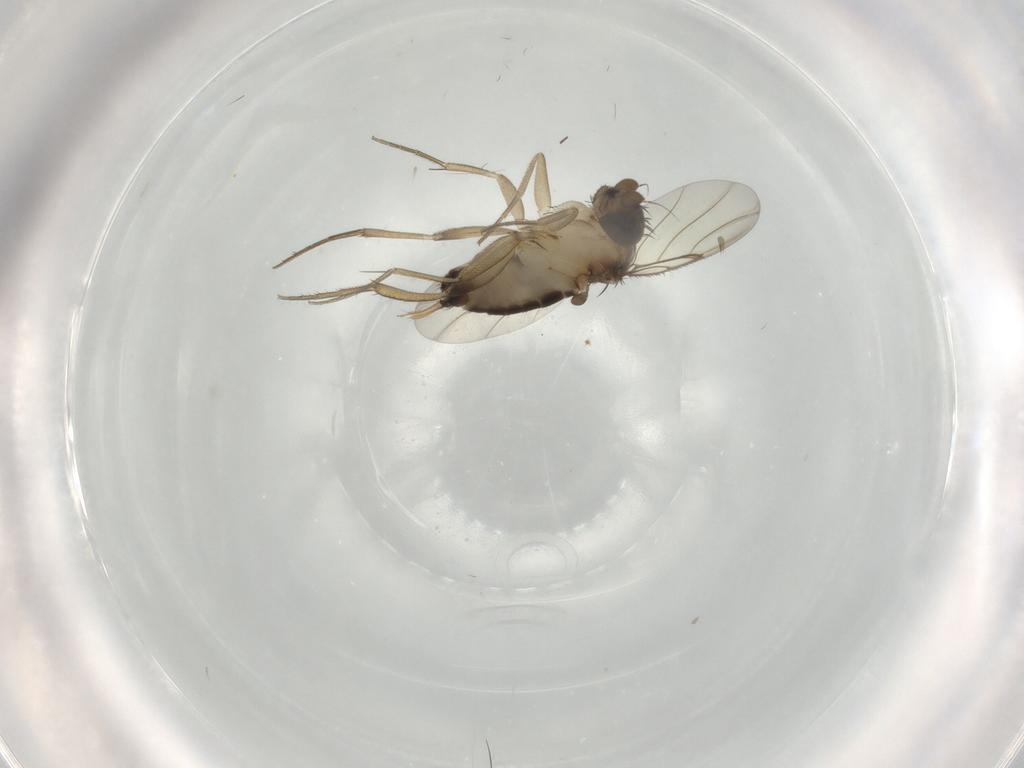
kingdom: Animalia
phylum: Arthropoda
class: Insecta
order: Diptera
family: Phoridae
